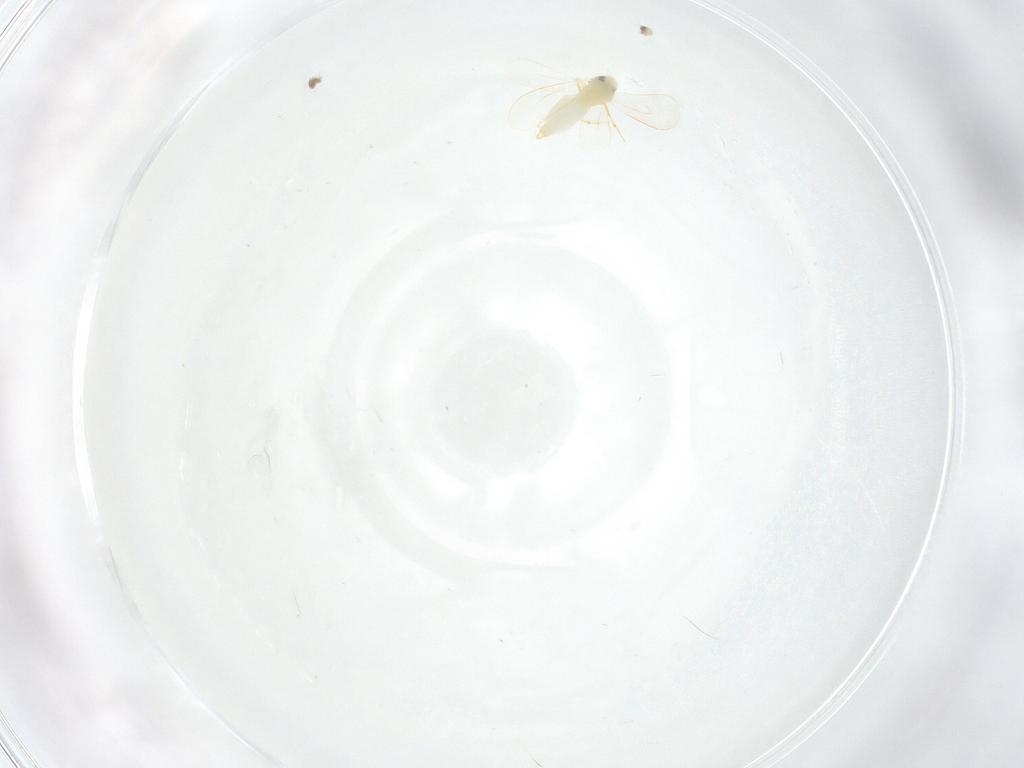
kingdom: Animalia
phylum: Arthropoda
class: Insecta
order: Hemiptera
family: Aleyrodidae
